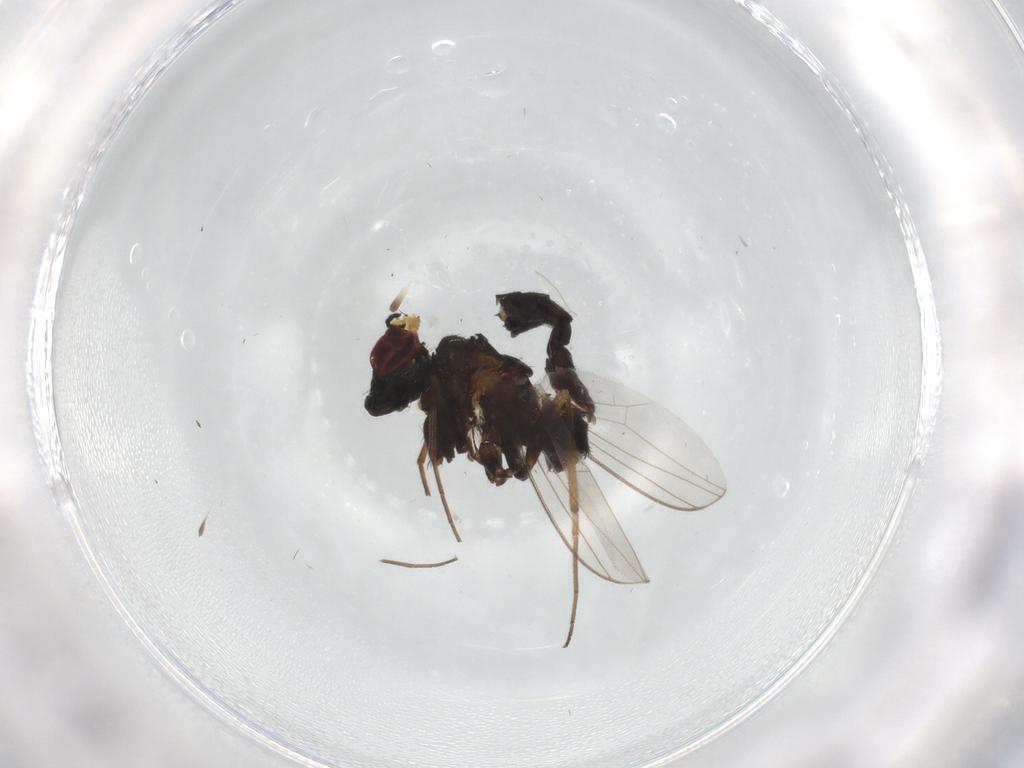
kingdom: Animalia
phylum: Arthropoda
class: Insecta
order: Diptera
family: Dolichopodidae
